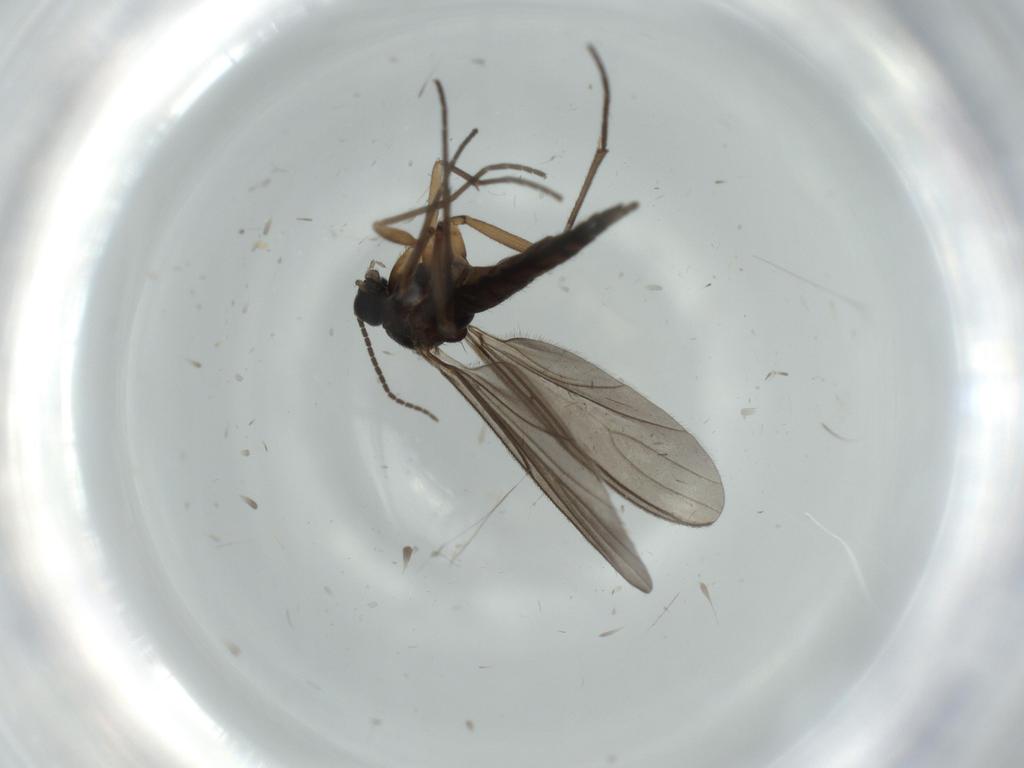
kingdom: Animalia
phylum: Arthropoda
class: Insecta
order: Diptera
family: Sciaridae
